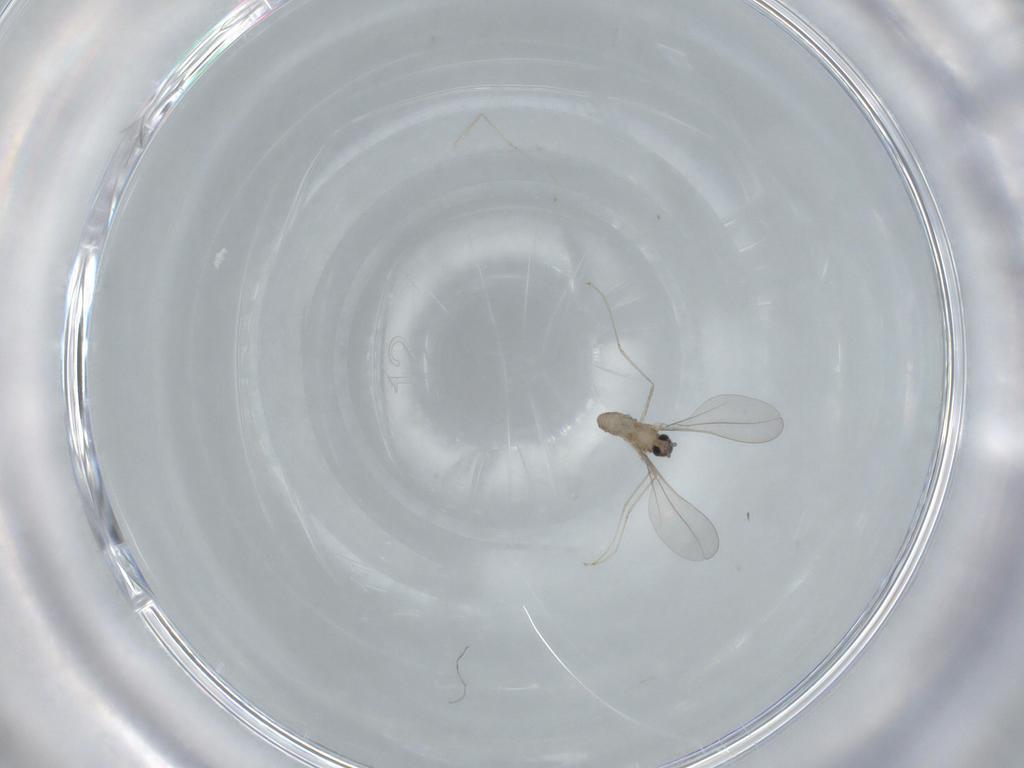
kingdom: Animalia
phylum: Arthropoda
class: Insecta
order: Diptera
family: Cecidomyiidae
